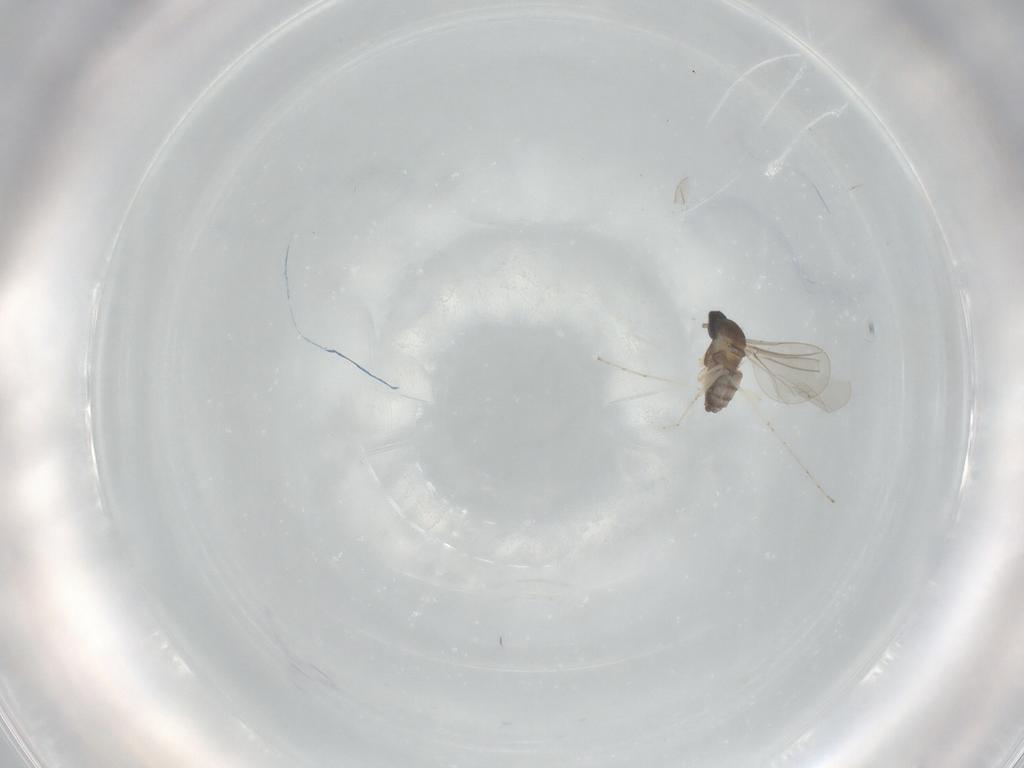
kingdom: Animalia
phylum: Arthropoda
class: Insecta
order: Diptera
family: Cecidomyiidae
